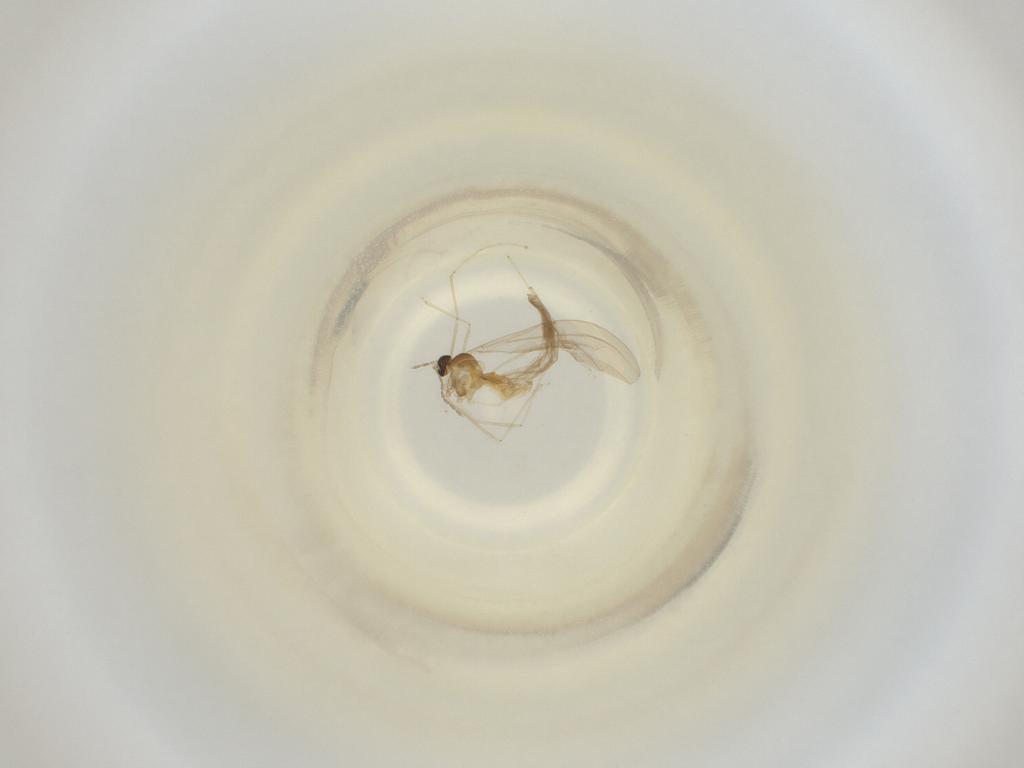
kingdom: Animalia
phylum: Arthropoda
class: Insecta
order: Diptera
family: Cecidomyiidae
